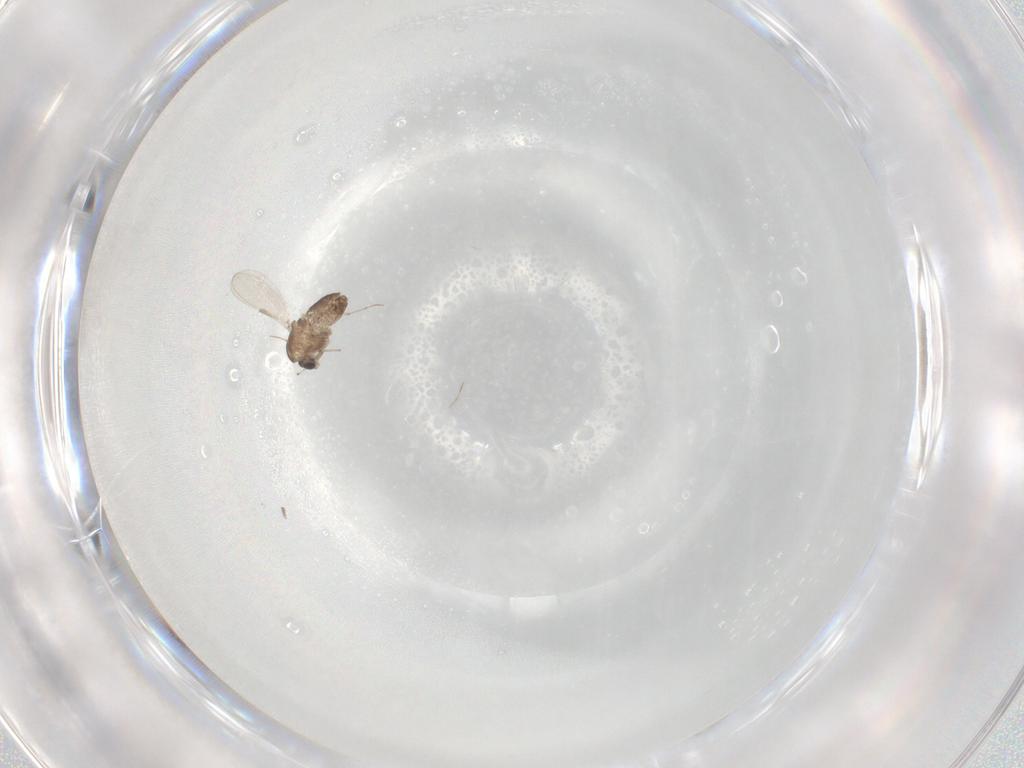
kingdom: Animalia
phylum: Arthropoda
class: Insecta
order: Diptera
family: Chironomidae
